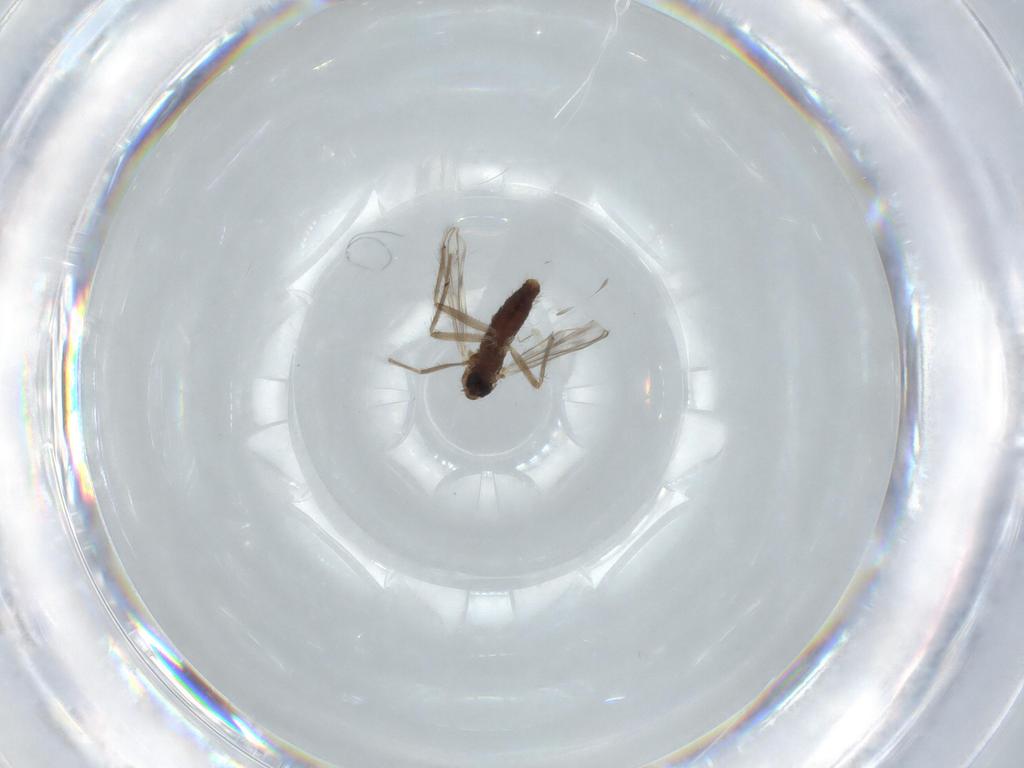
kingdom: Animalia
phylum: Arthropoda
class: Insecta
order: Diptera
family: Chironomidae
